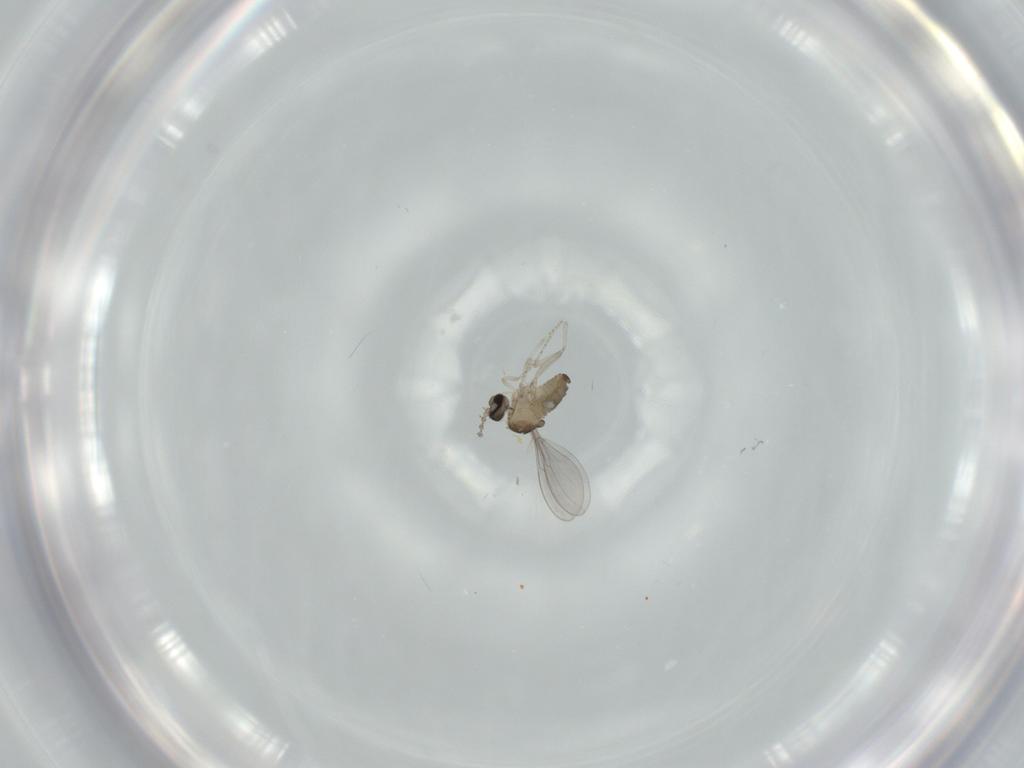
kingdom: Animalia
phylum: Arthropoda
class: Insecta
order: Diptera
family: Cecidomyiidae
